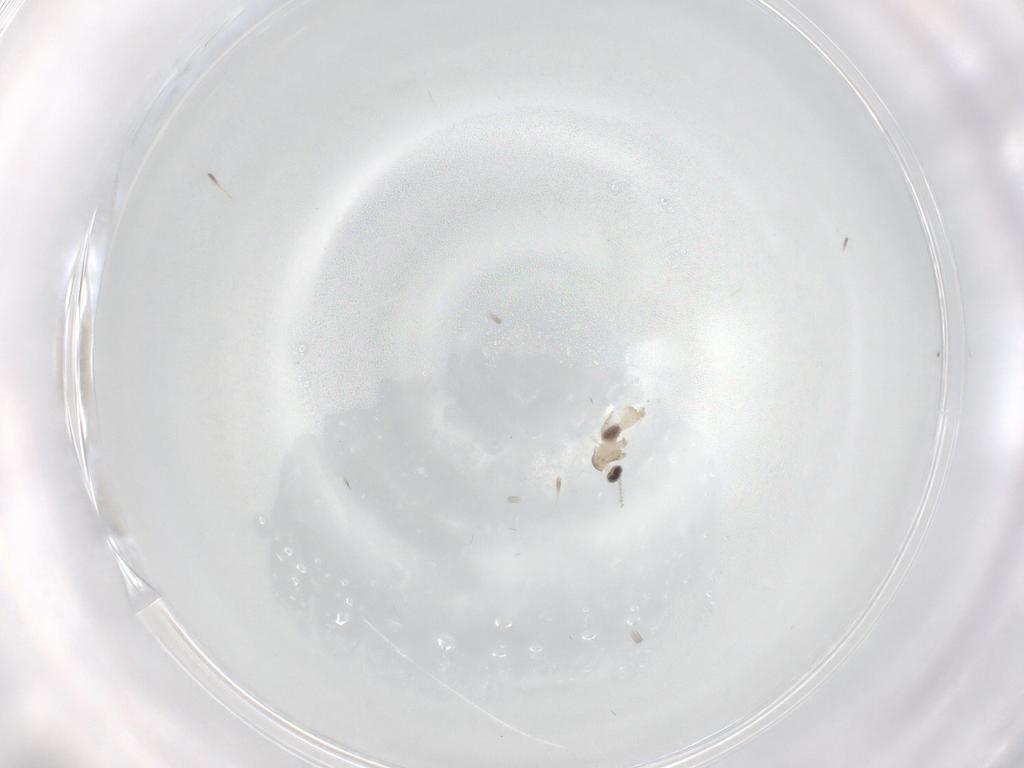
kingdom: Animalia
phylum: Arthropoda
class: Insecta
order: Diptera
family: Cecidomyiidae
